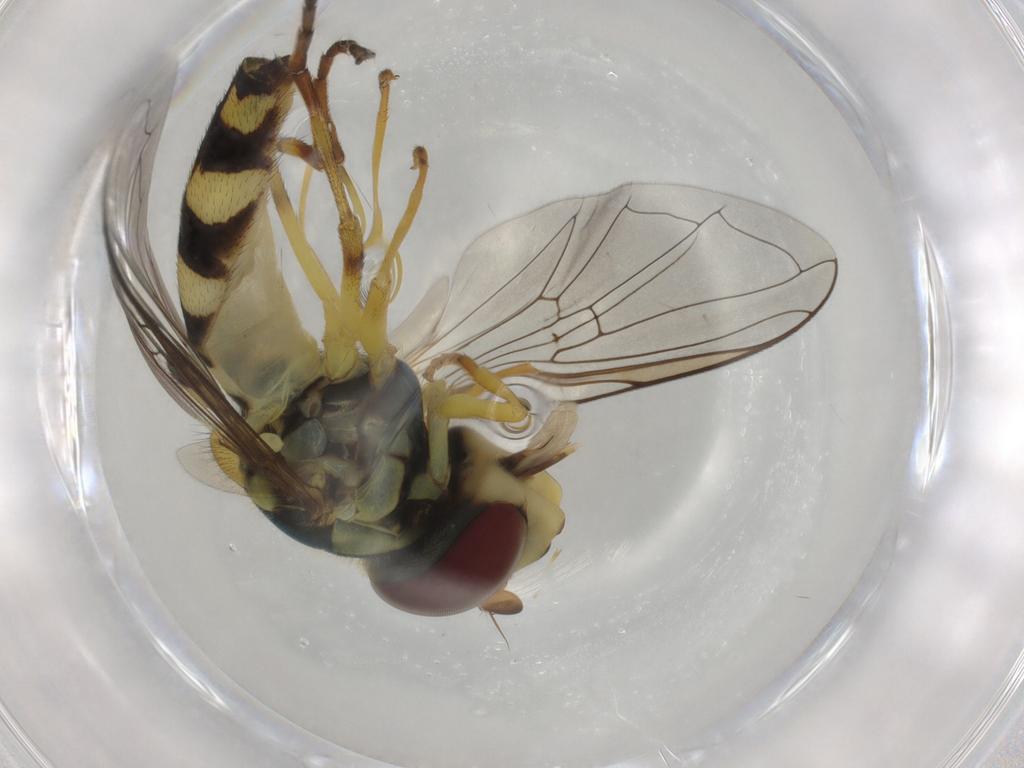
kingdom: Animalia
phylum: Arthropoda
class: Insecta
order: Diptera
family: Syrphidae
